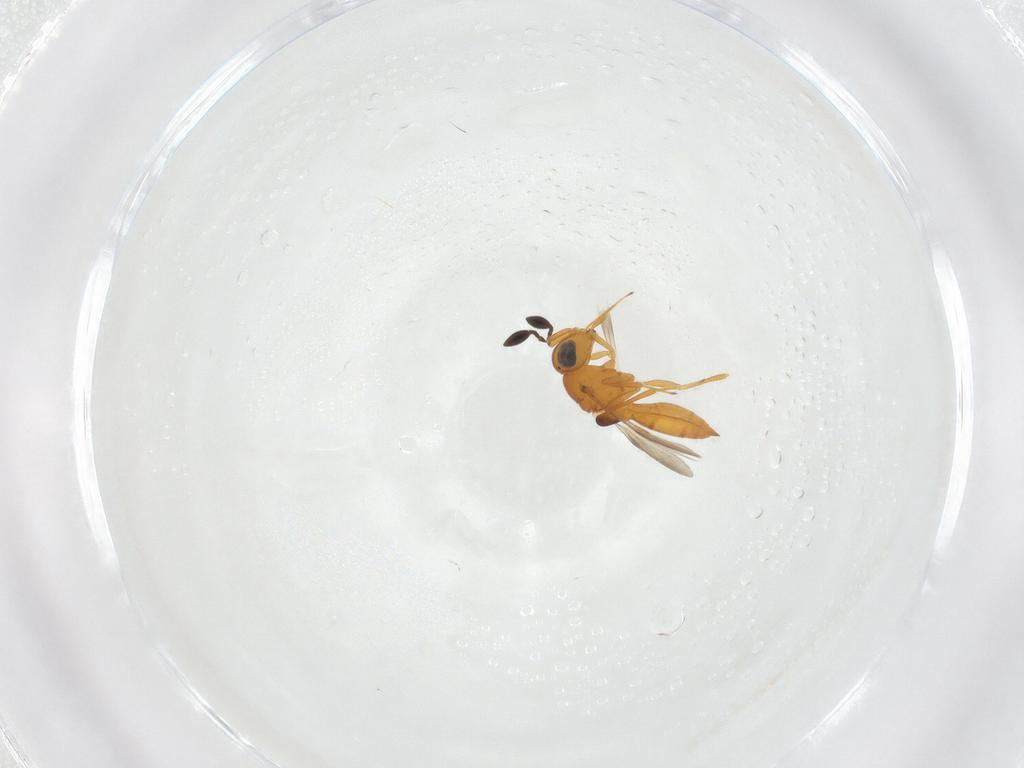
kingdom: Animalia
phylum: Arthropoda
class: Insecta
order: Hymenoptera
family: Scelionidae
